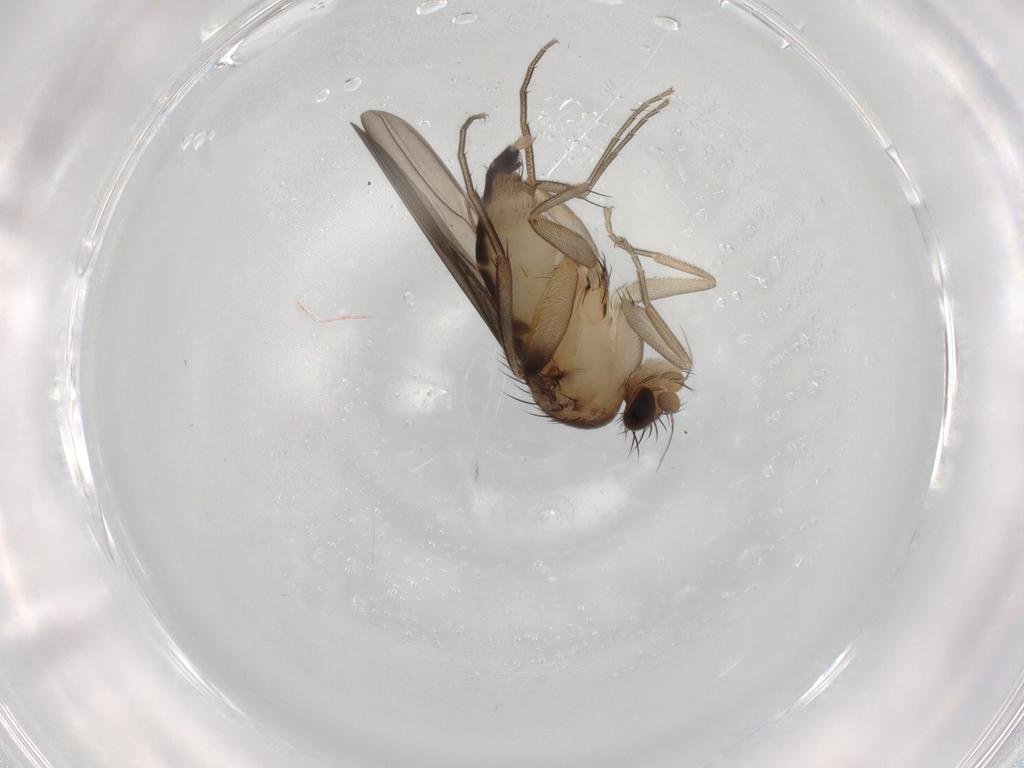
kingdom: Animalia
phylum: Arthropoda
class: Insecta
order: Diptera
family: Phoridae
